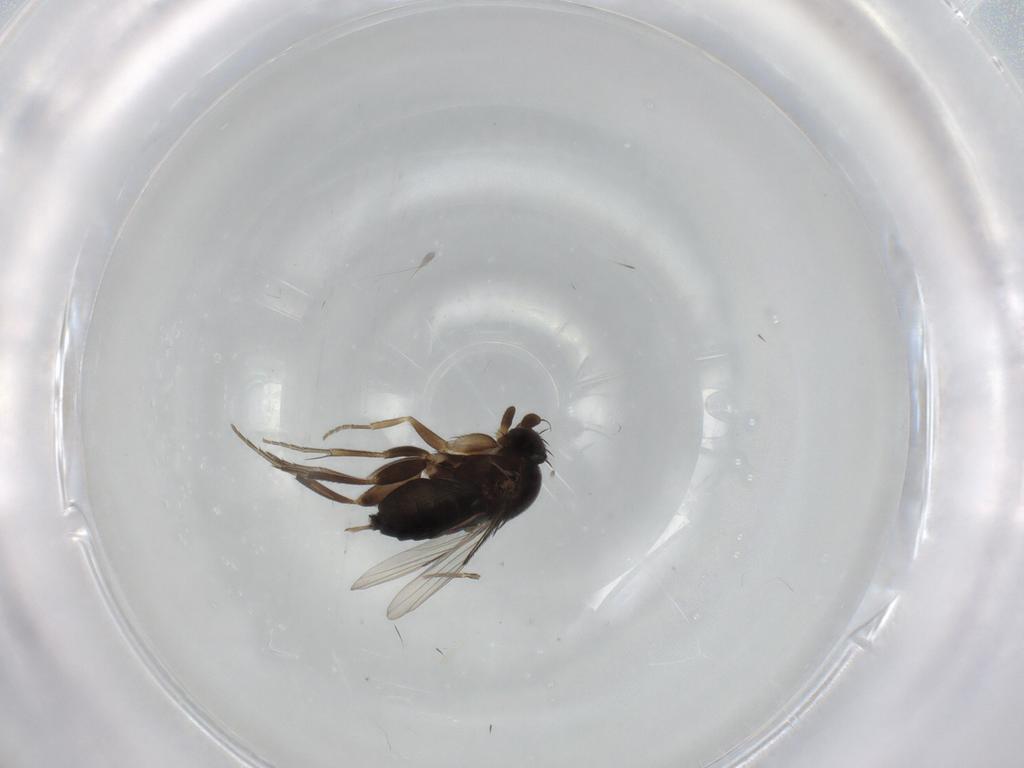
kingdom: Animalia
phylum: Arthropoda
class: Insecta
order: Diptera
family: Phoridae
